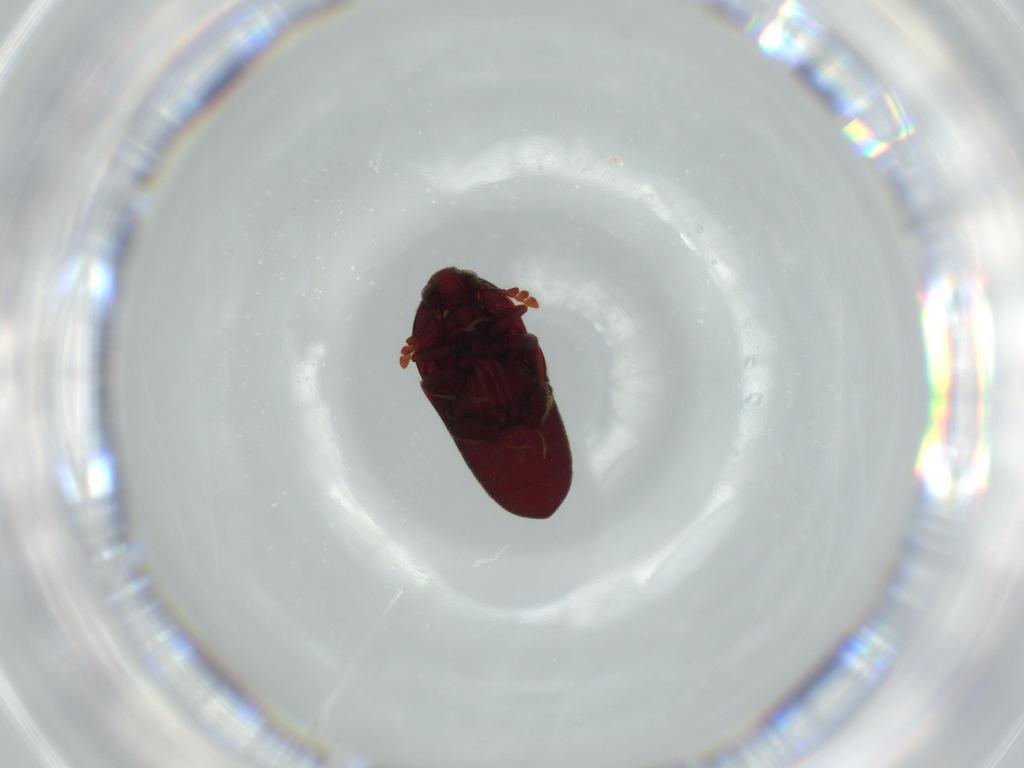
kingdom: Animalia
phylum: Arthropoda
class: Insecta
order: Coleoptera
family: Throscidae
